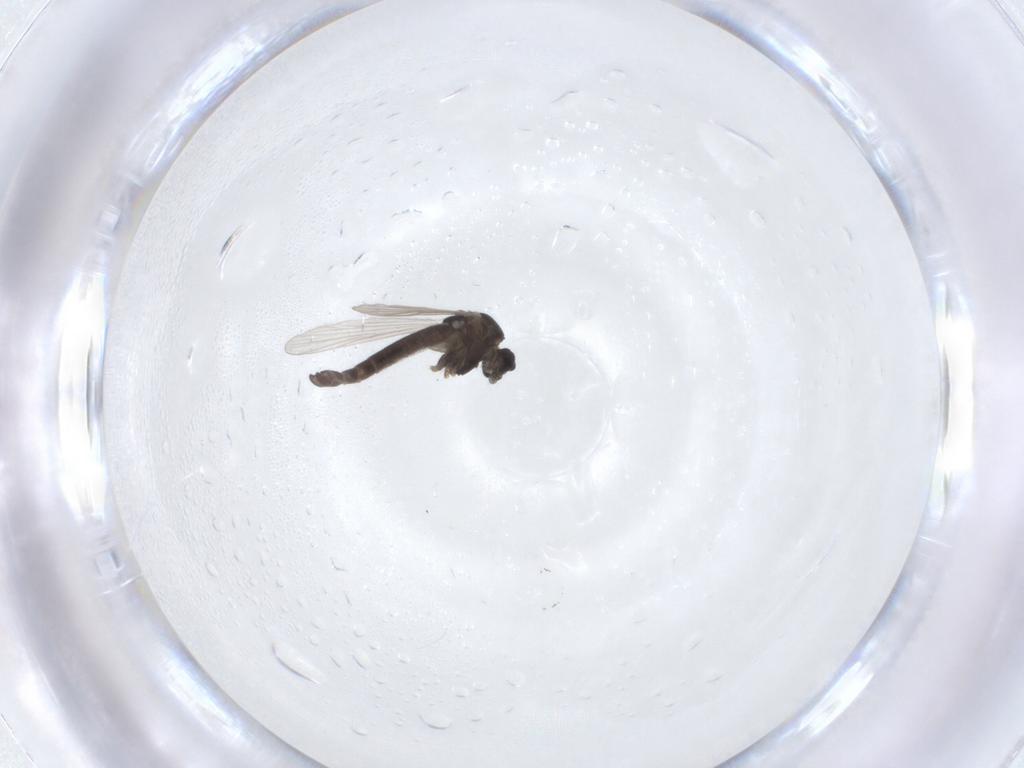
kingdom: Animalia
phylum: Arthropoda
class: Insecta
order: Diptera
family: Chironomidae
